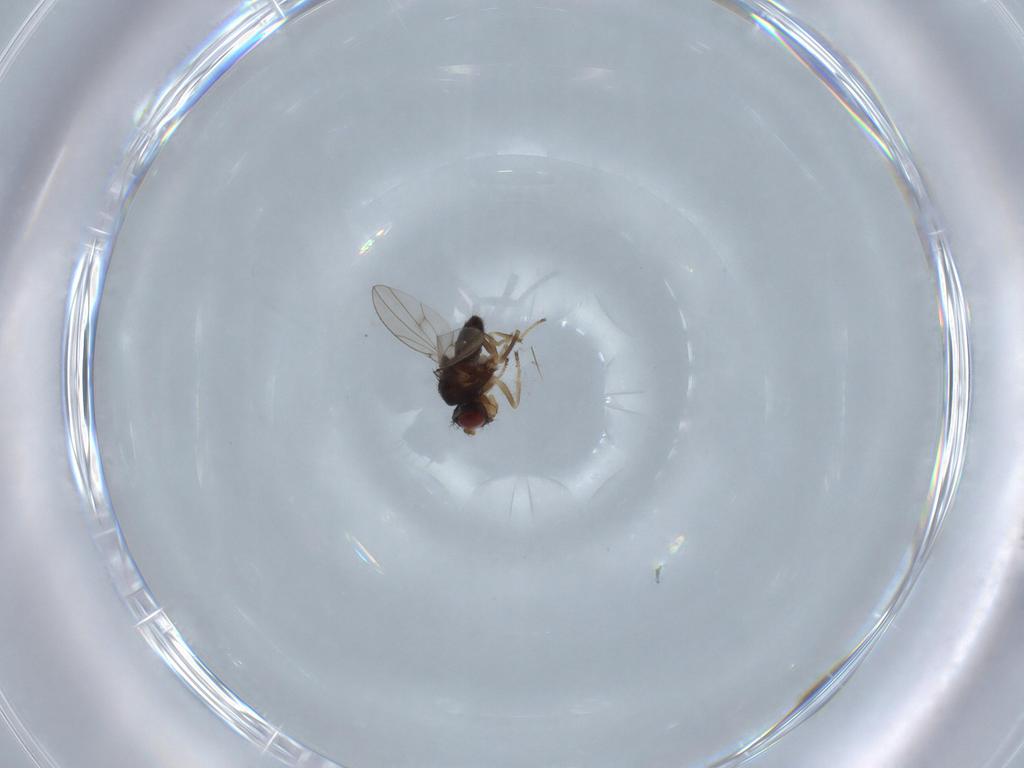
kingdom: Animalia
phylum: Arthropoda
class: Insecta
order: Diptera
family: Ephydridae
